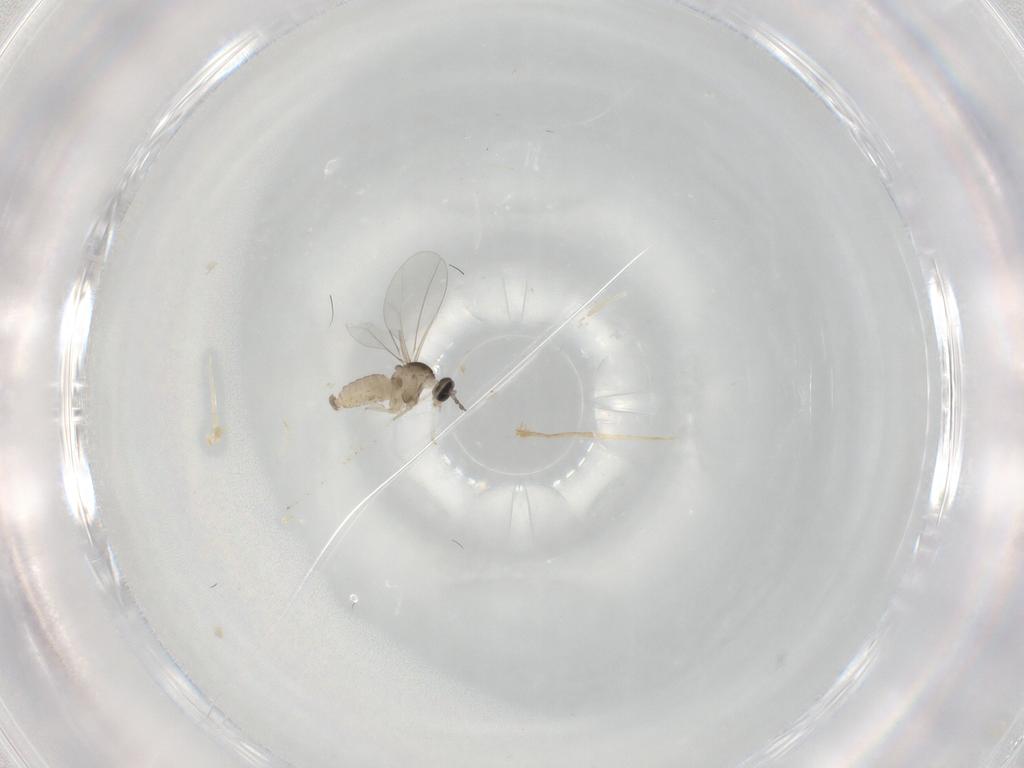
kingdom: Animalia
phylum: Arthropoda
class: Insecta
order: Diptera
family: Cecidomyiidae
